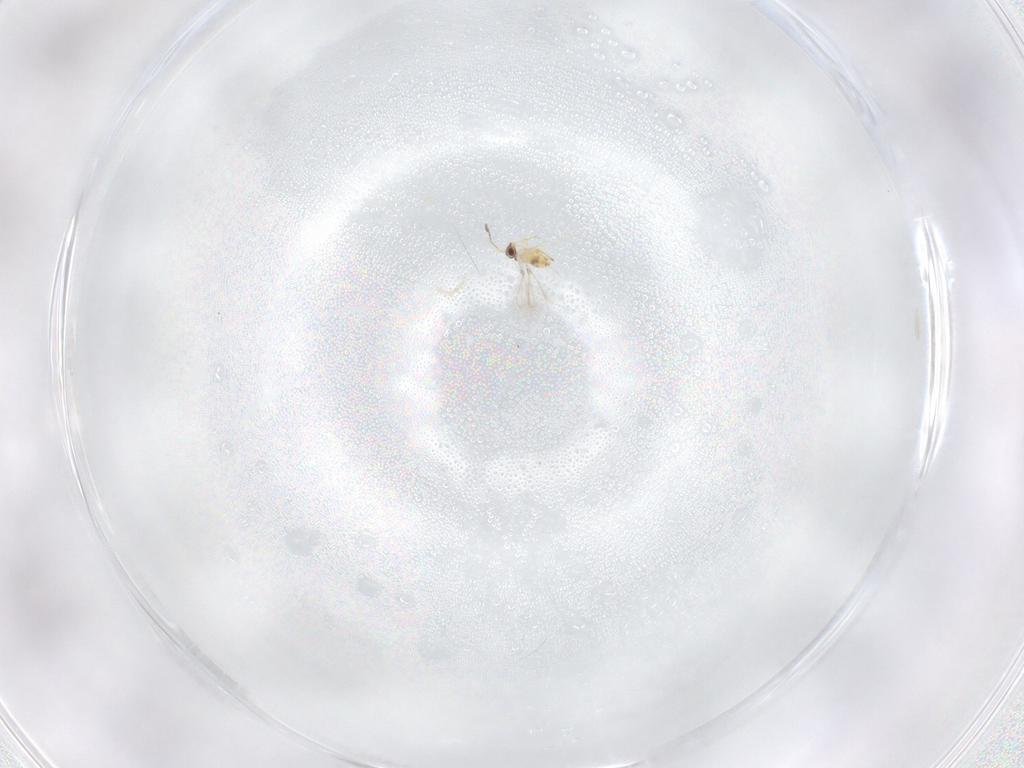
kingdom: Animalia
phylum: Arthropoda
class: Insecta
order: Hymenoptera
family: Mymaridae
